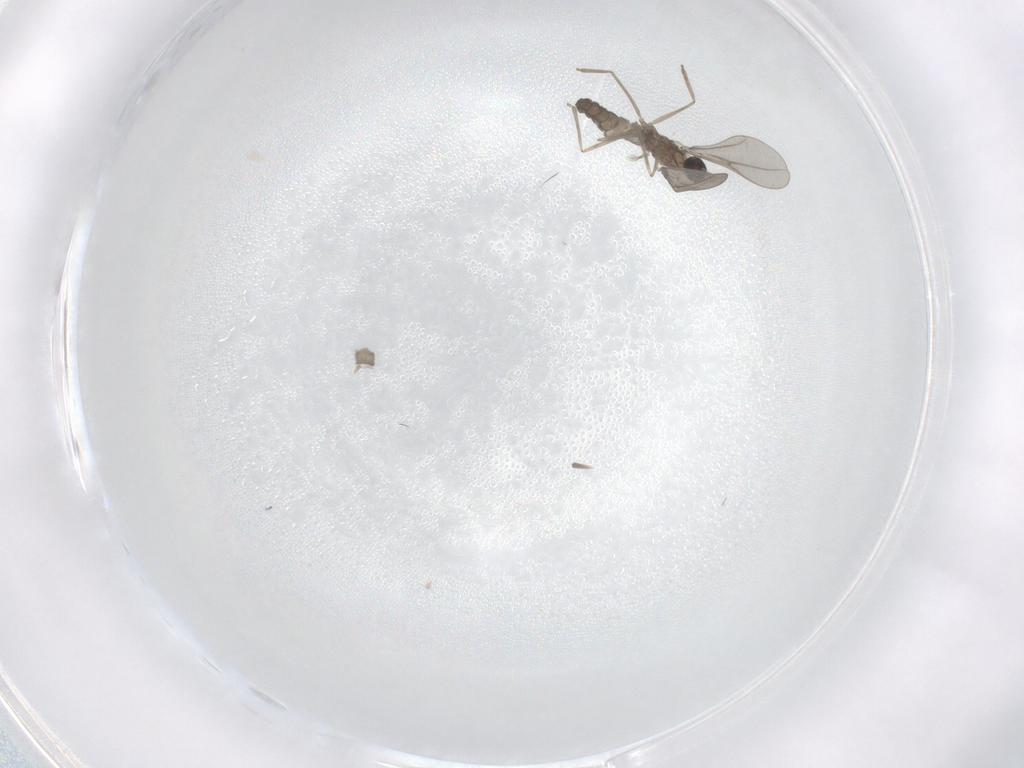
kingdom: Animalia
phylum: Arthropoda
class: Insecta
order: Diptera
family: Cecidomyiidae
